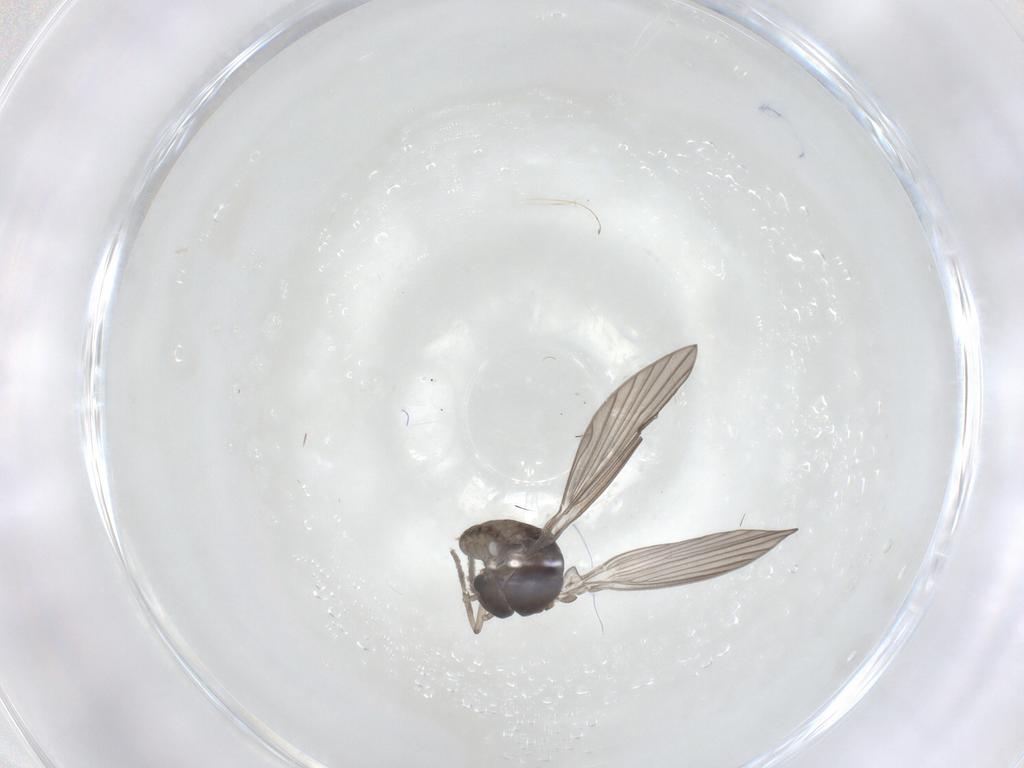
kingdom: Animalia
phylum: Arthropoda
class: Insecta
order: Diptera
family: Psychodidae
